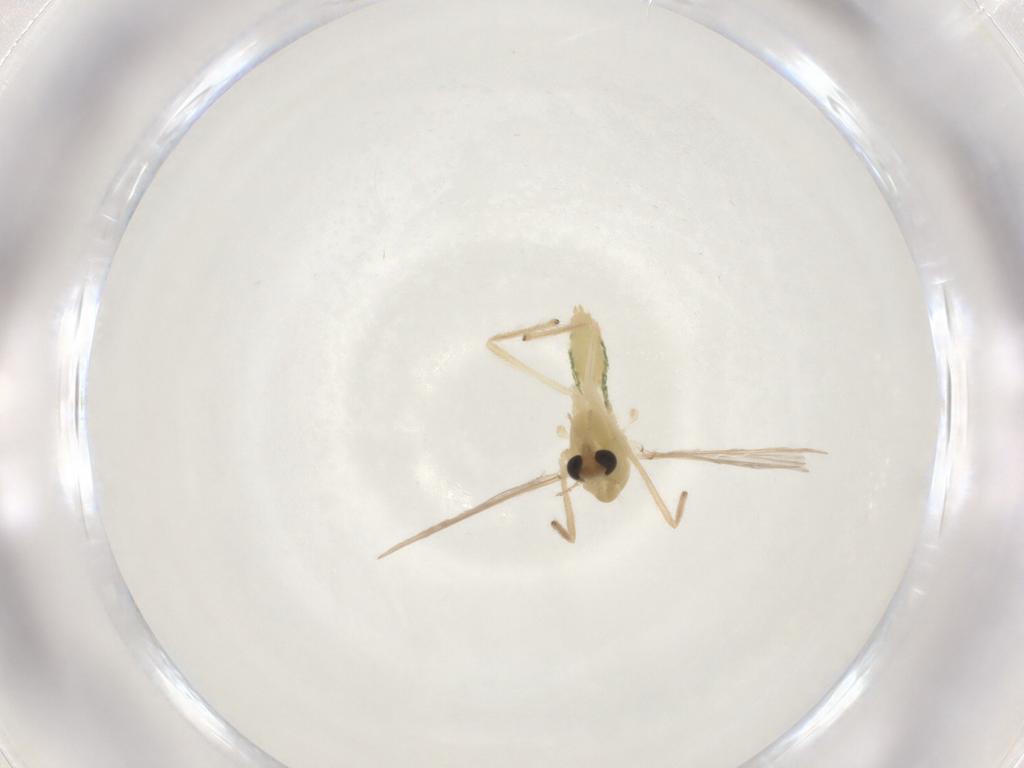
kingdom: Animalia
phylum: Arthropoda
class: Insecta
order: Diptera
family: Chironomidae
